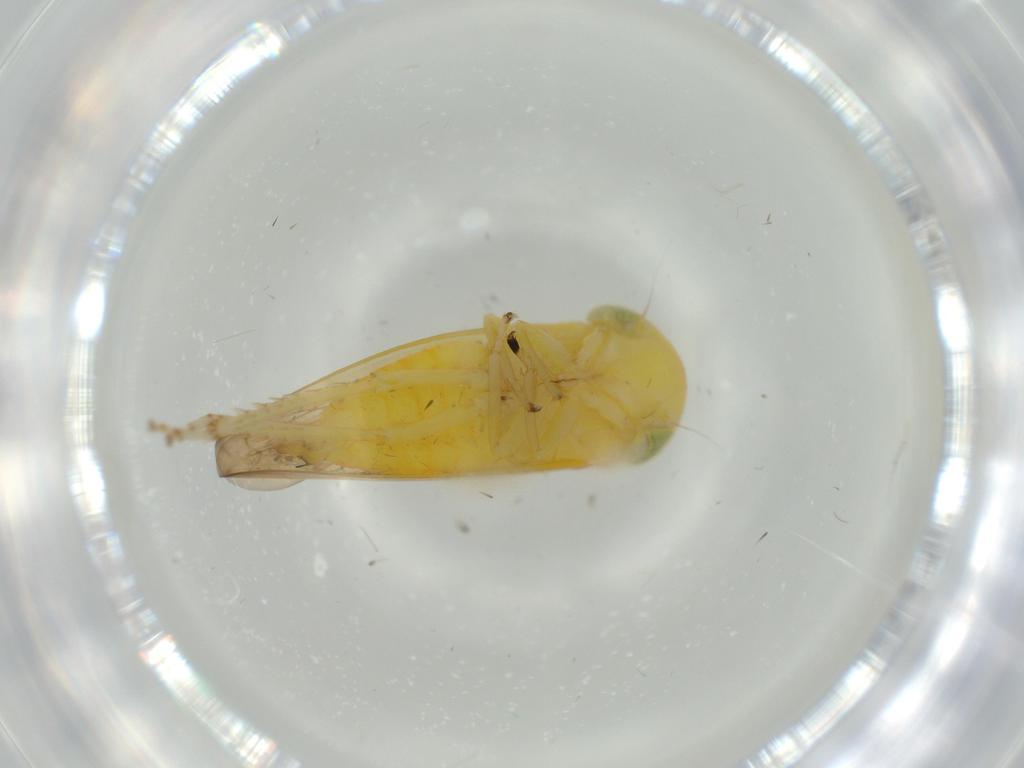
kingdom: Animalia
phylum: Arthropoda
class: Insecta
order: Hemiptera
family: Cicadellidae
